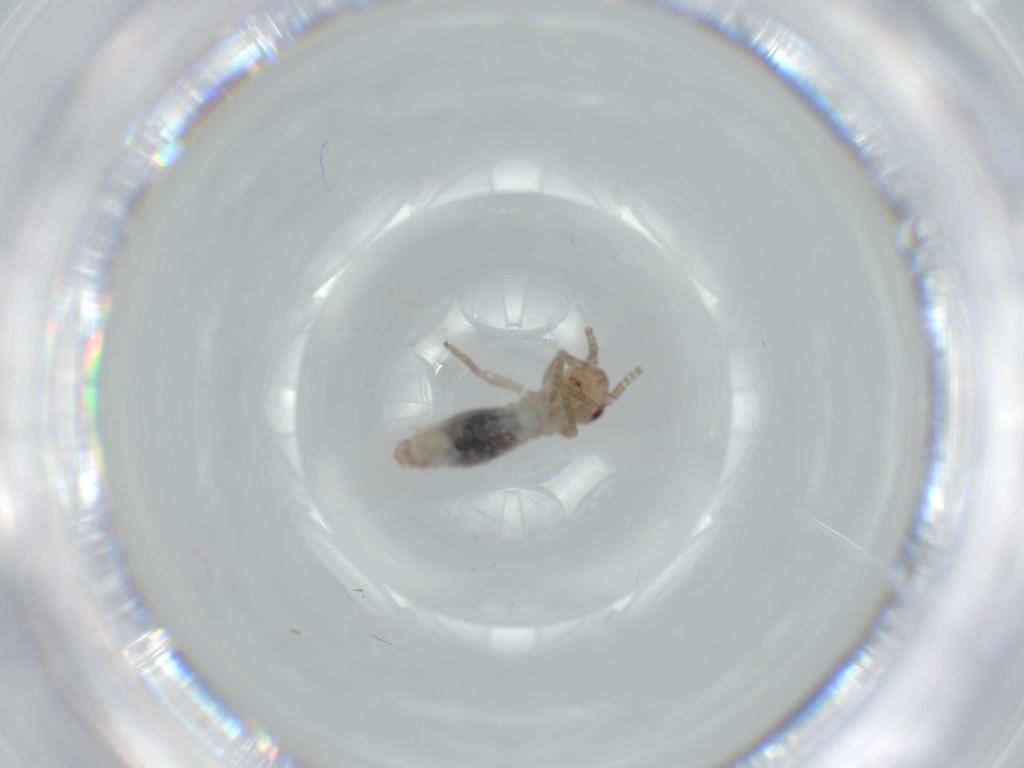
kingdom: Animalia
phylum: Arthropoda
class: Insecta
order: Orthoptera
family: Mogoplistidae
